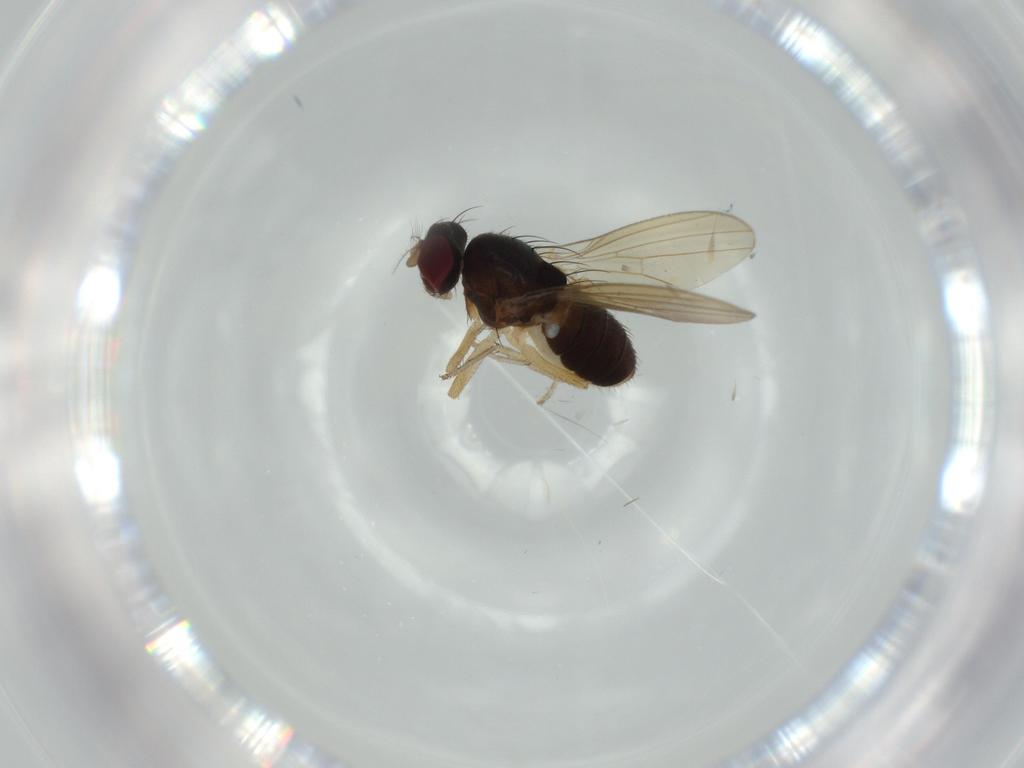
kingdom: Animalia
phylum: Arthropoda
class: Insecta
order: Diptera
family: Lauxaniidae
